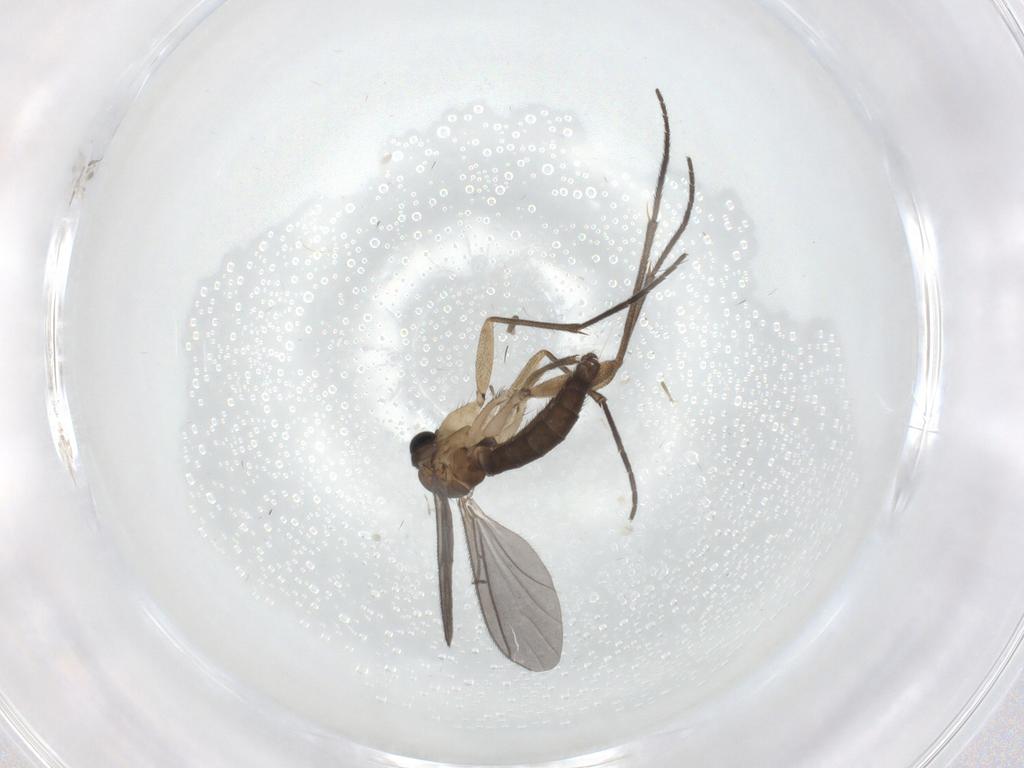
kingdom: Animalia
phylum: Arthropoda
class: Insecta
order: Diptera
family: Sciaridae
